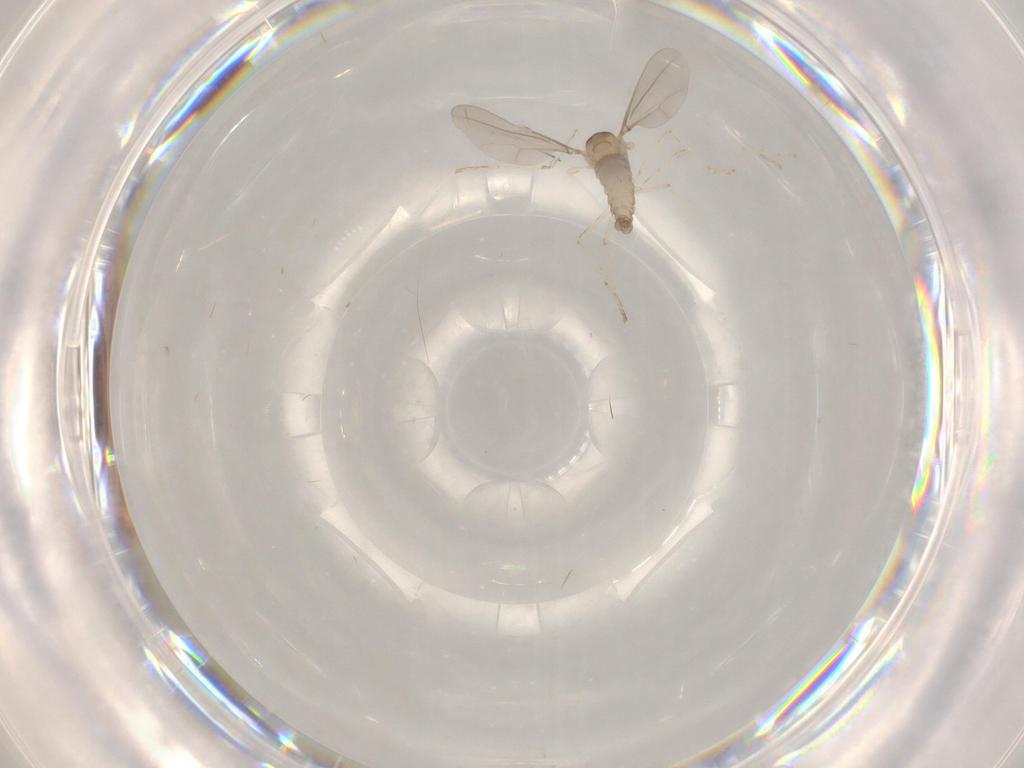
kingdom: Animalia
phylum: Arthropoda
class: Insecta
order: Diptera
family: Cecidomyiidae
